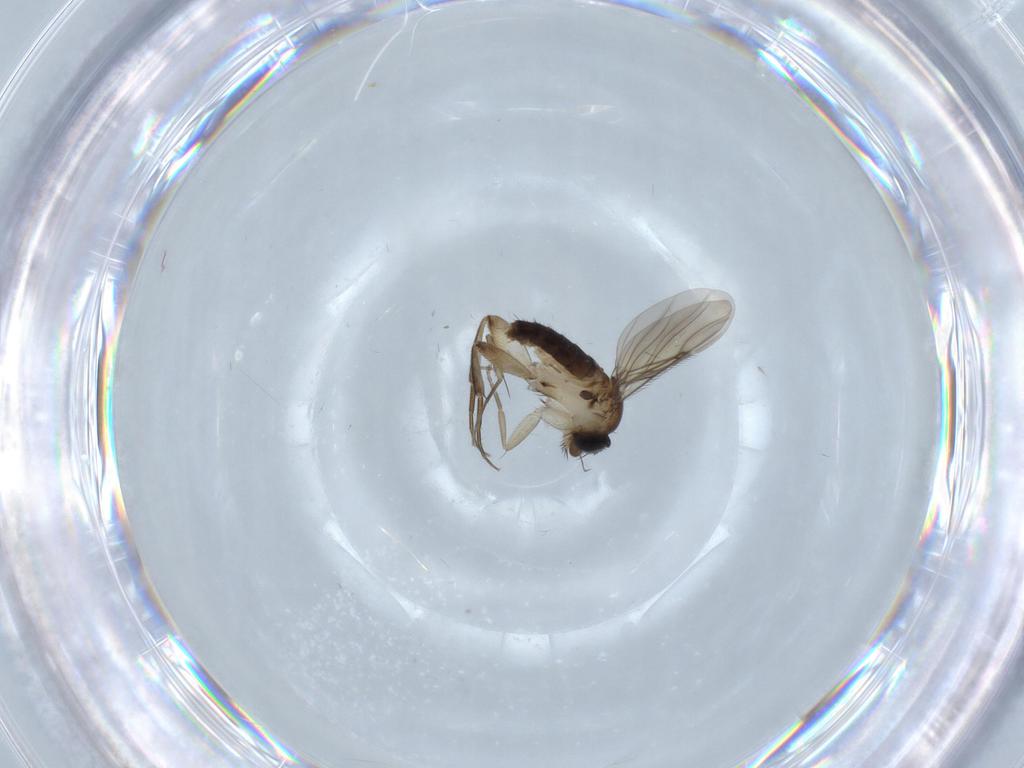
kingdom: Animalia
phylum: Arthropoda
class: Insecta
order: Diptera
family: Phoridae
